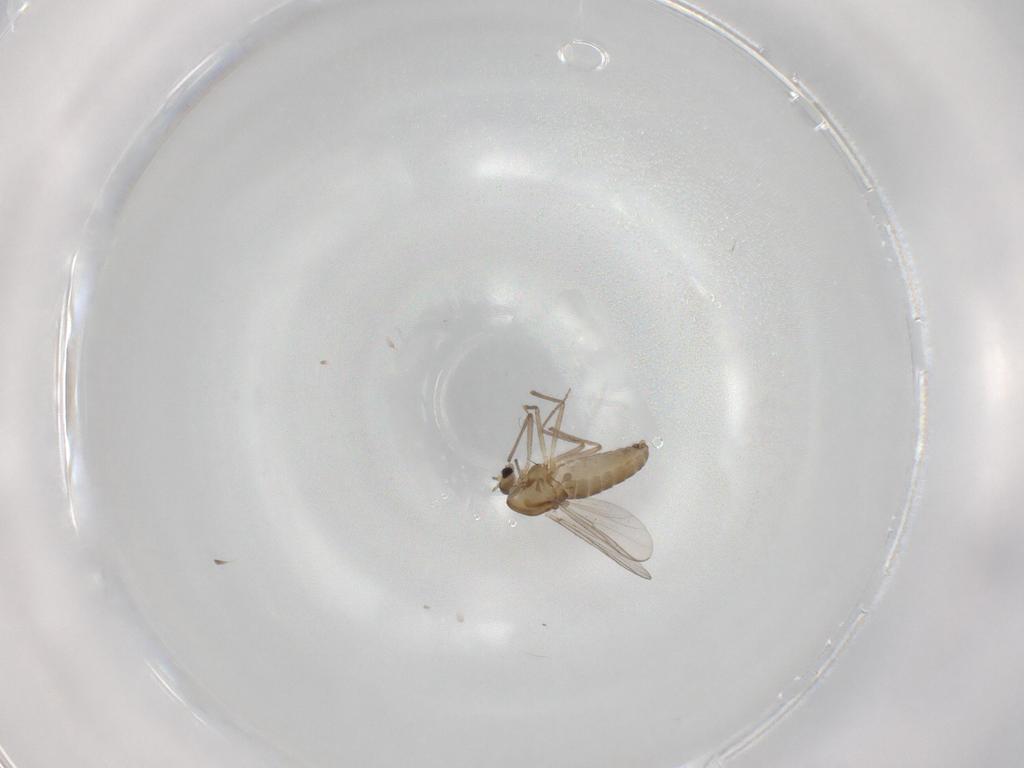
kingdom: Animalia
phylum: Arthropoda
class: Insecta
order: Diptera
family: Chironomidae
